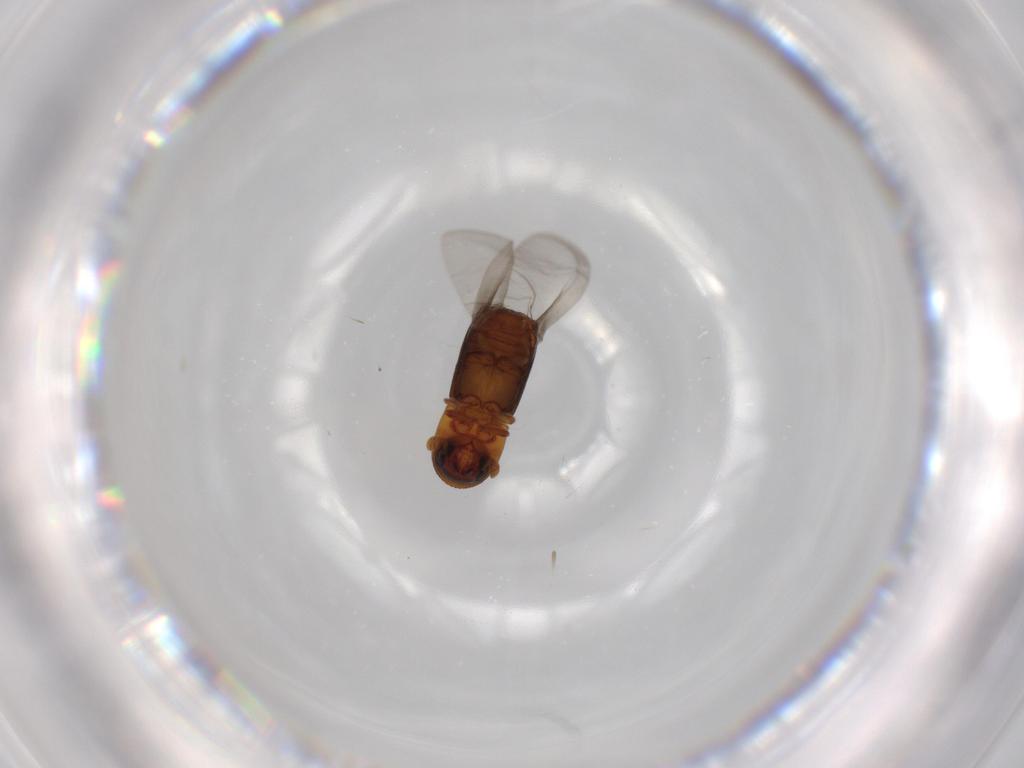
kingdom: Animalia
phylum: Arthropoda
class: Insecta
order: Coleoptera
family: Curculionidae
